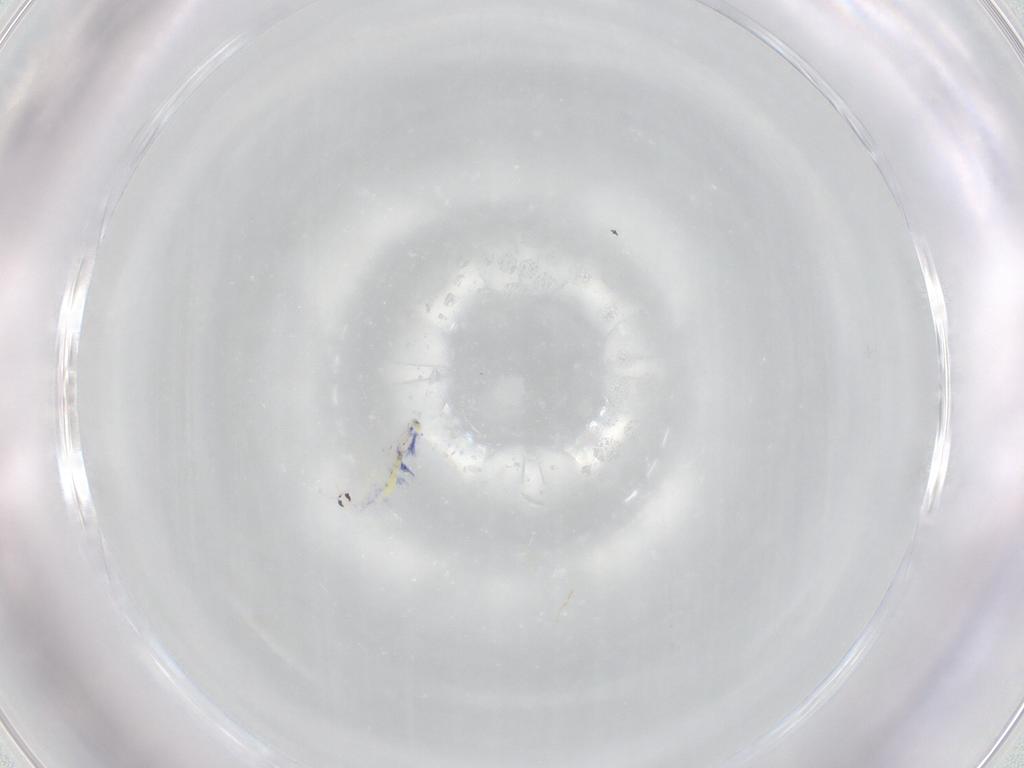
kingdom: Animalia
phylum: Arthropoda
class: Collembola
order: Entomobryomorpha
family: Entomobryidae
